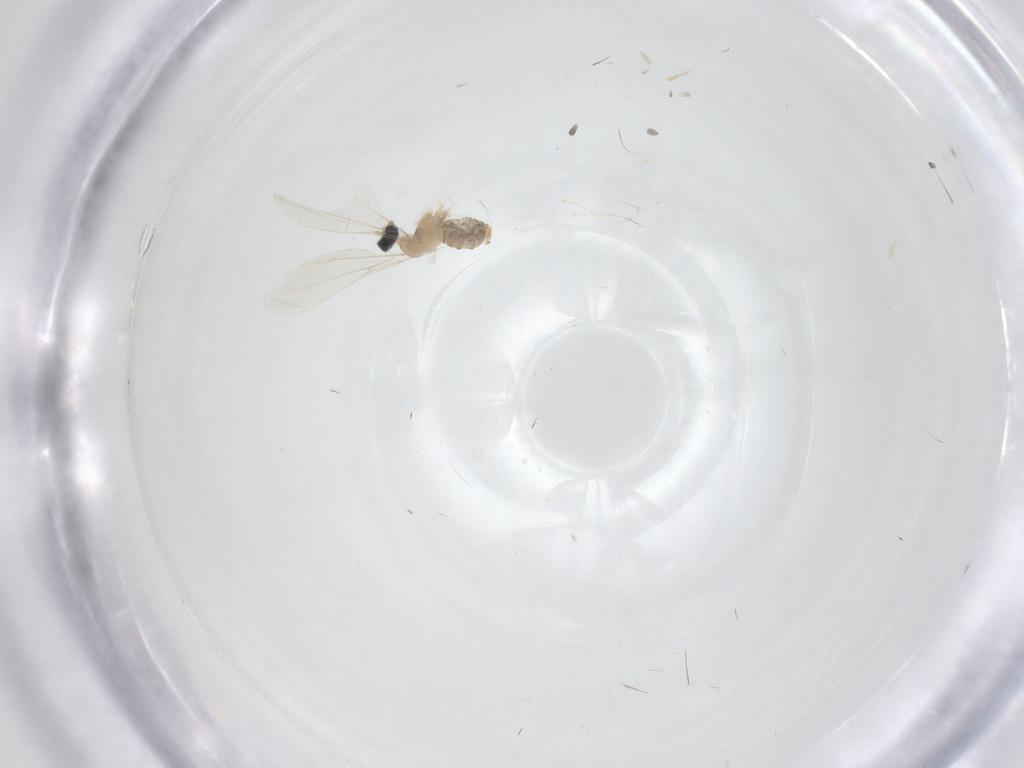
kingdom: Animalia
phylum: Arthropoda
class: Insecta
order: Diptera
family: Cecidomyiidae
